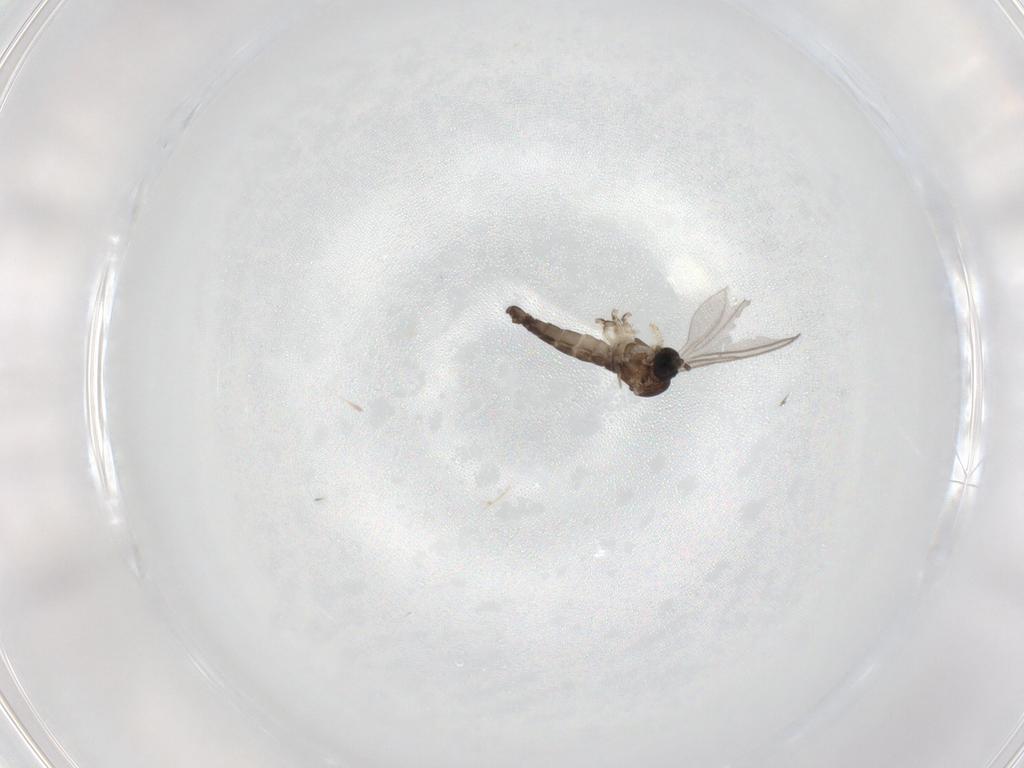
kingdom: Animalia
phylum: Arthropoda
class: Insecta
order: Diptera
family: Sciaridae
